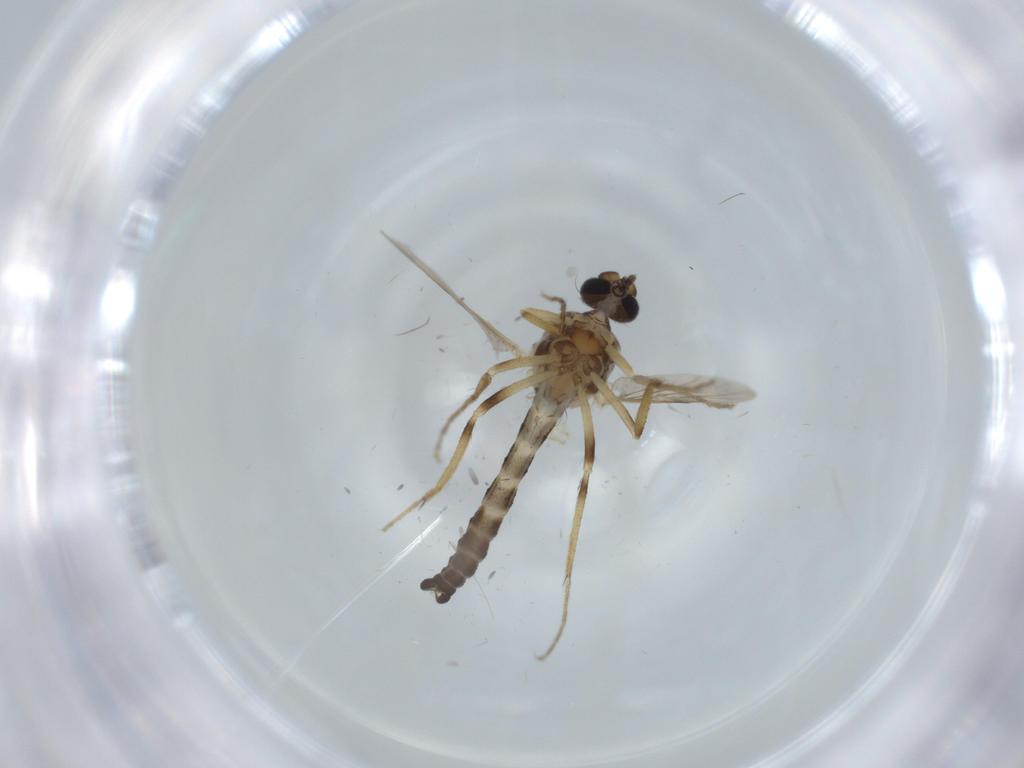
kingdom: Animalia
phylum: Arthropoda
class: Insecta
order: Diptera
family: Ceratopogonidae
